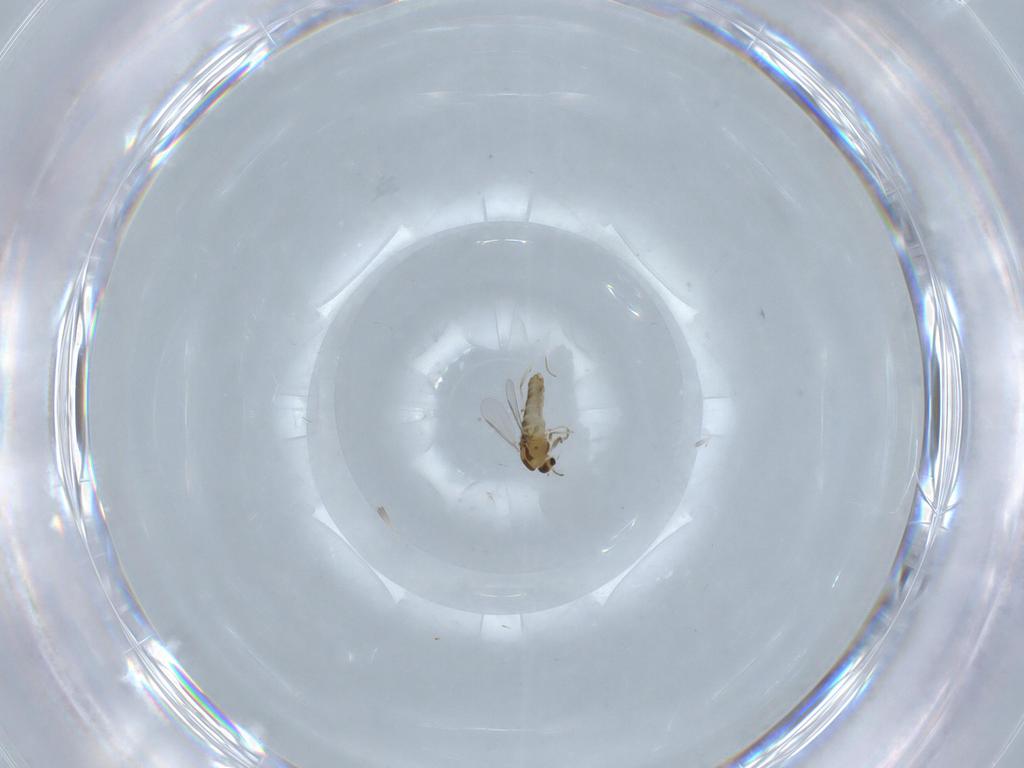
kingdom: Animalia
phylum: Arthropoda
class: Insecta
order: Diptera
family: Chironomidae
